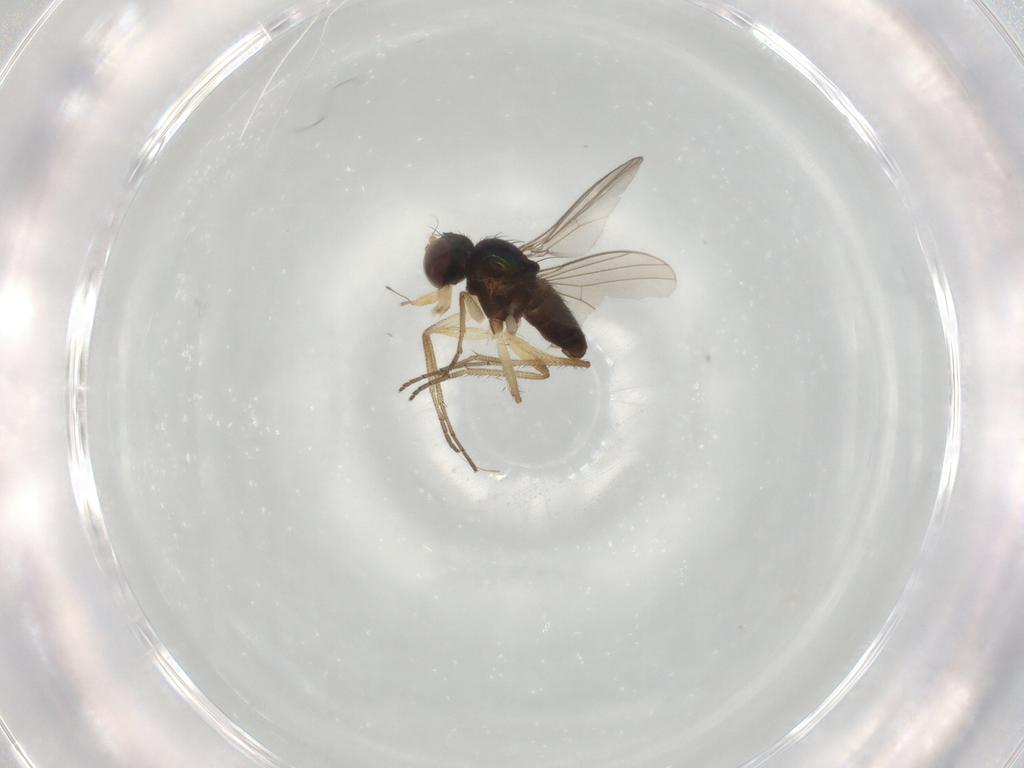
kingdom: Animalia
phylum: Arthropoda
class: Insecta
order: Diptera
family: Dolichopodidae
